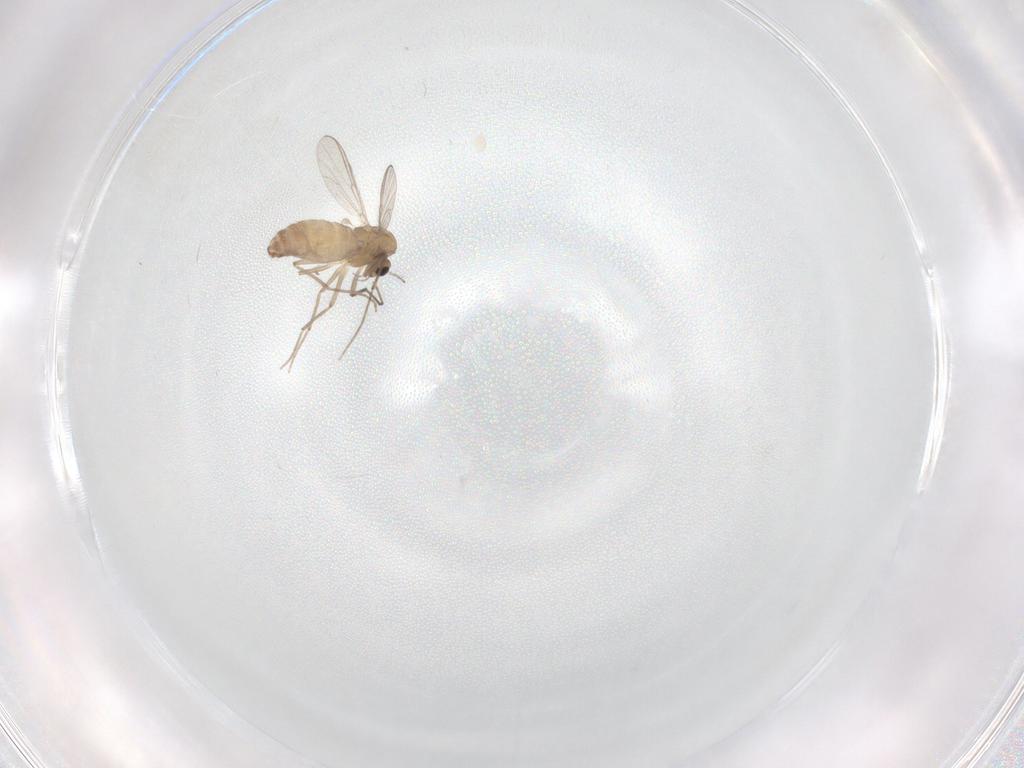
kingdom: Animalia
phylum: Arthropoda
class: Insecta
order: Diptera
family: Chironomidae
